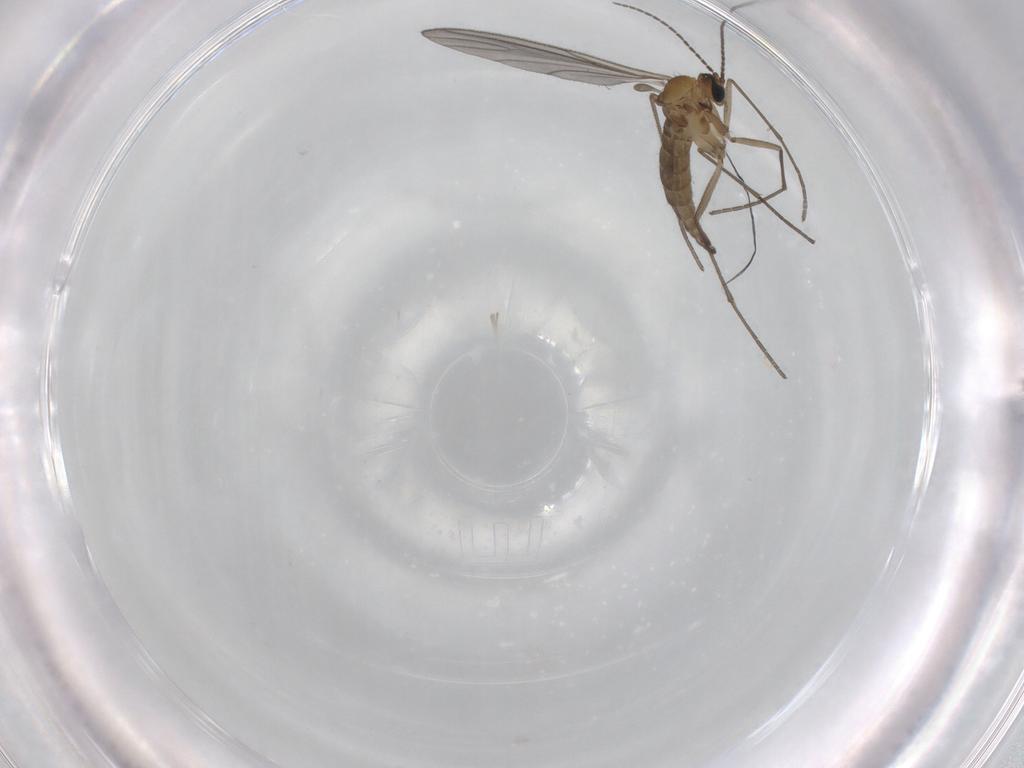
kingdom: Animalia
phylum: Arthropoda
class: Insecta
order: Diptera
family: Sciaridae
